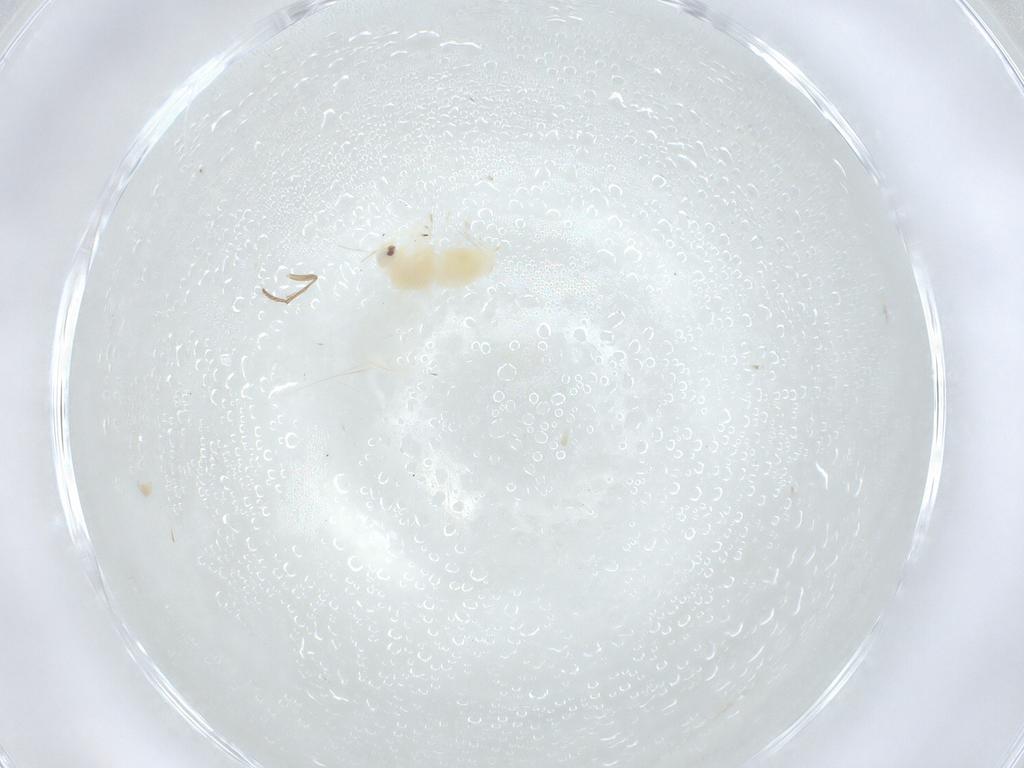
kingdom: Animalia
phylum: Arthropoda
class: Insecta
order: Hemiptera
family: Aleyrodidae
